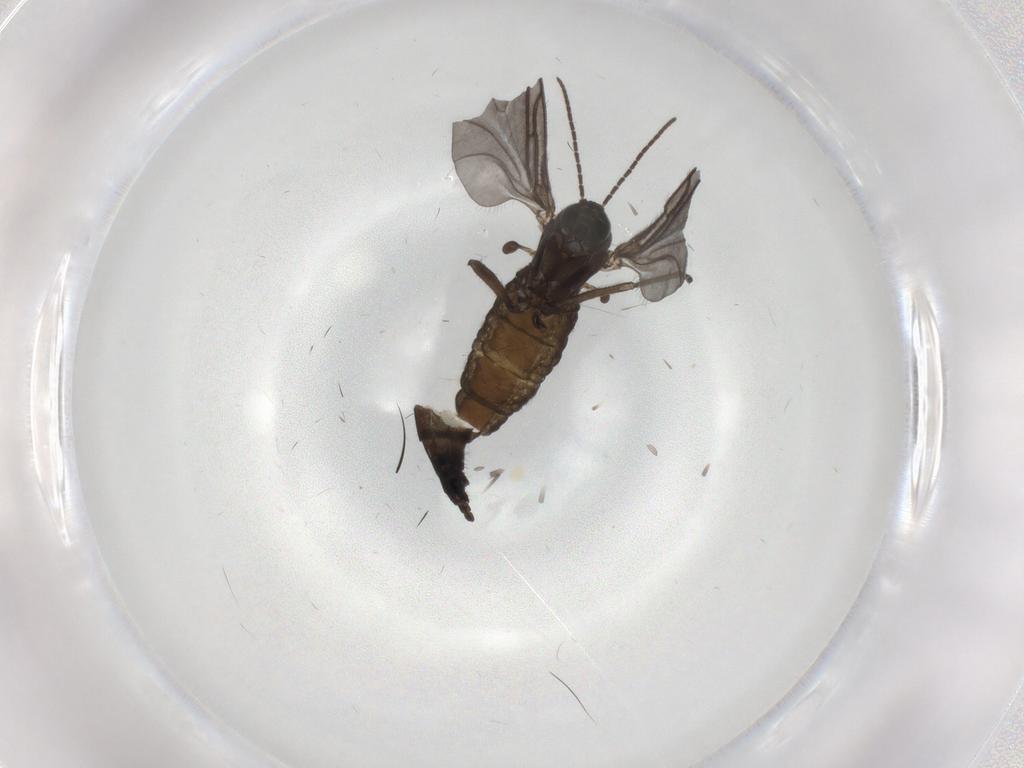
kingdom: Animalia
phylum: Arthropoda
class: Insecta
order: Diptera
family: Sciaridae
